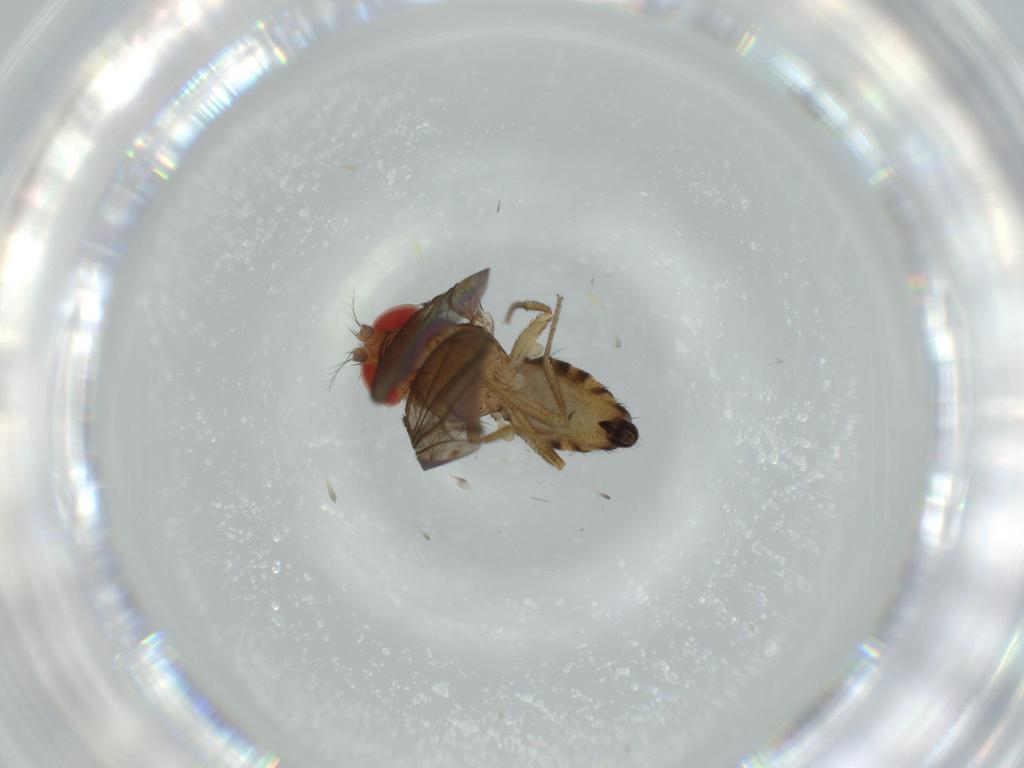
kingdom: Animalia
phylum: Arthropoda
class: Insecta
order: Diptera
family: Drosophilidae
